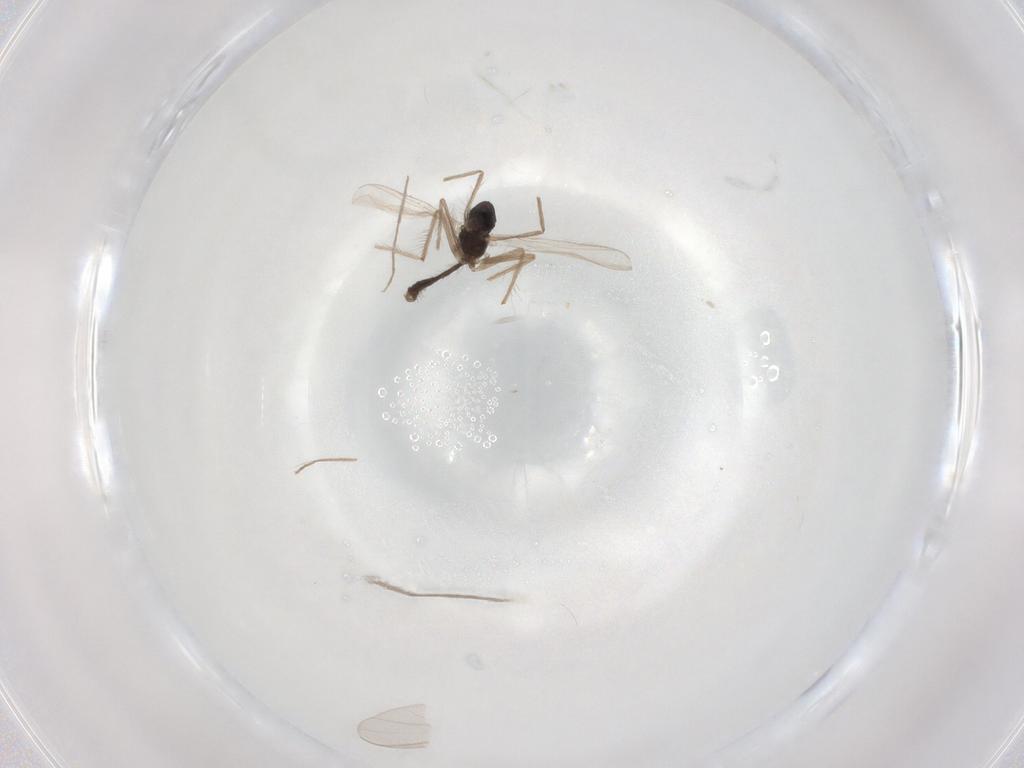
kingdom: Animalia
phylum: Arthropoda
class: Insecta
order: Diptera
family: Chironomidae
